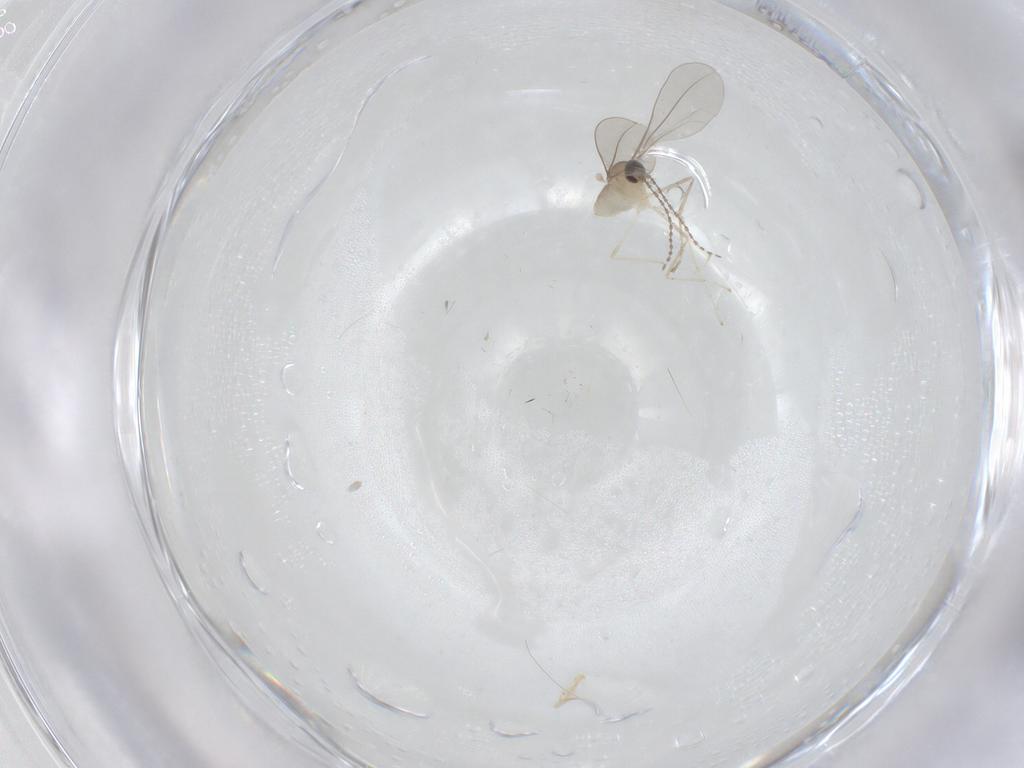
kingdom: Animalia
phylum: Arthropoda
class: Insecta
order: Diptera
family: Cecidomyiidae
